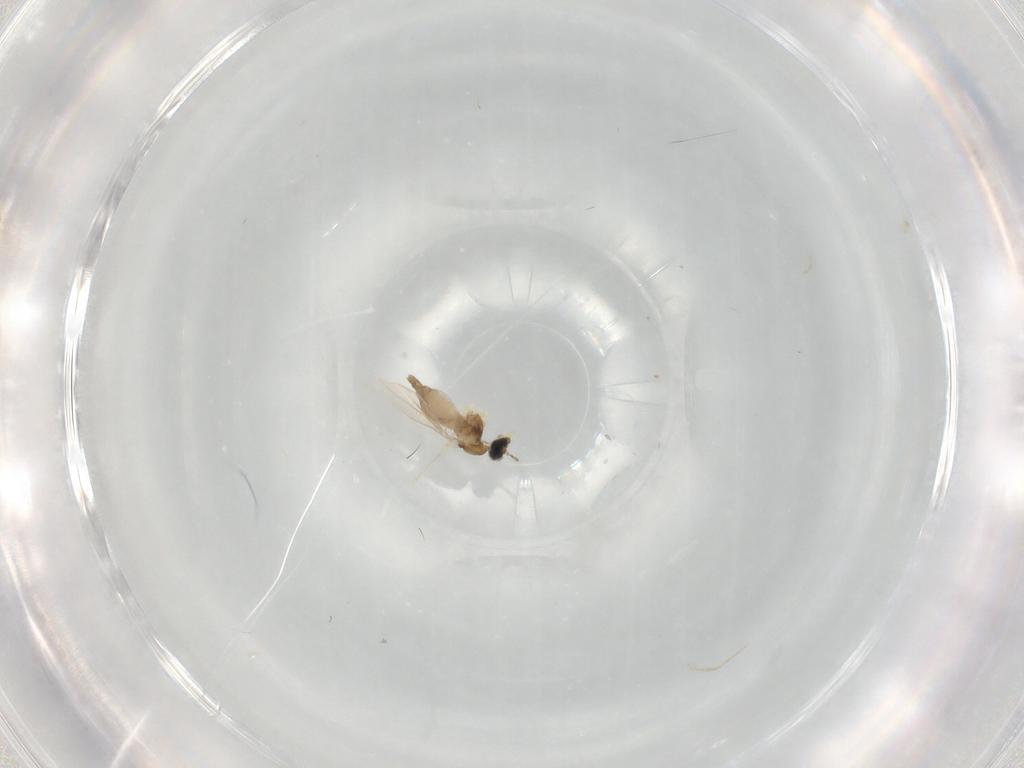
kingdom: Animalia
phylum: Arthropoda
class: Insecta
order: Diptera
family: Cecidomyiidae
